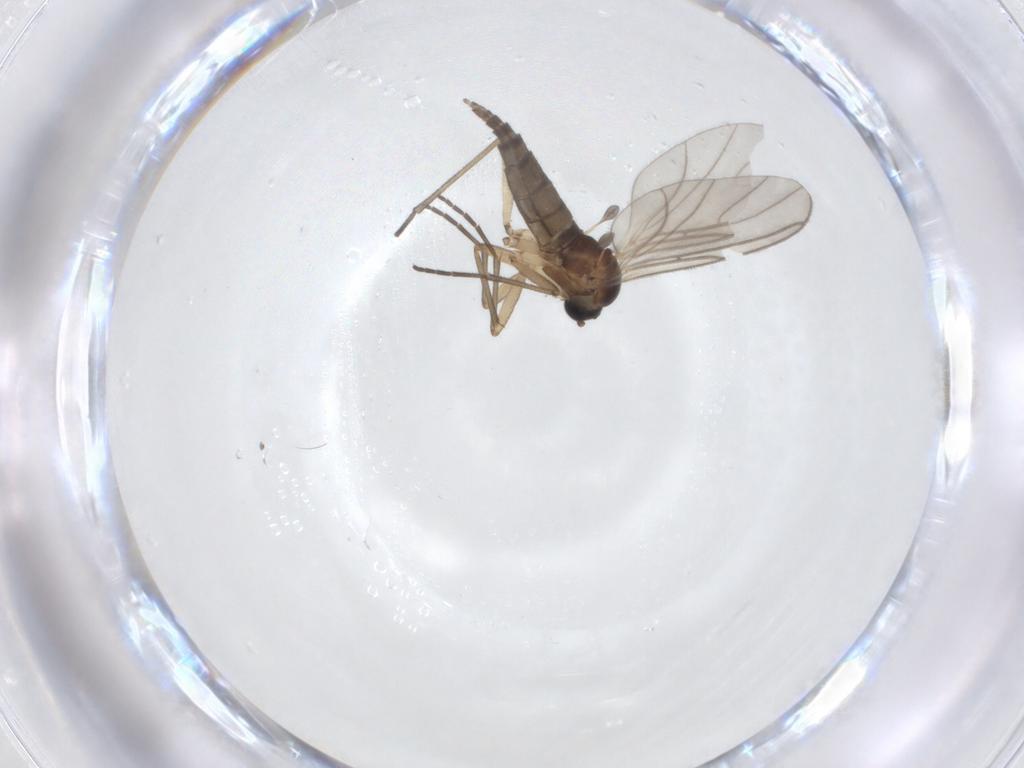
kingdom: Animalia
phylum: Arthropoda
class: Insecta
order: Diptera
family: Sciaridae
